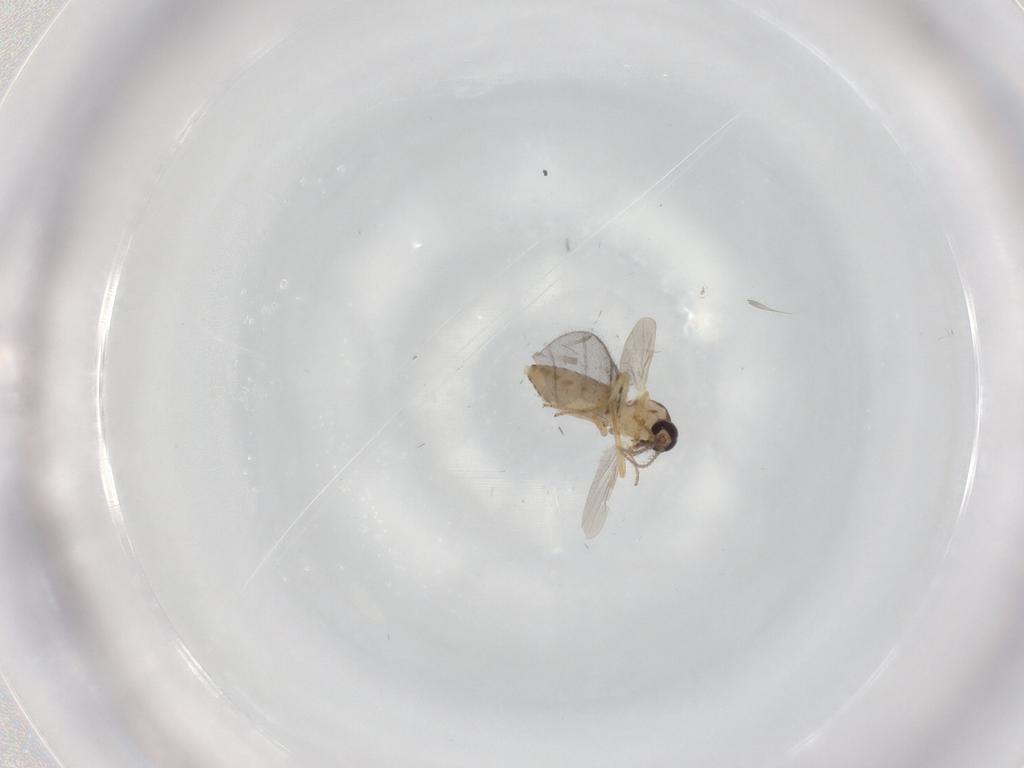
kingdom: Animalia
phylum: Arthropoda
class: Insecta
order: Diptera
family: Ceratopogonidae
